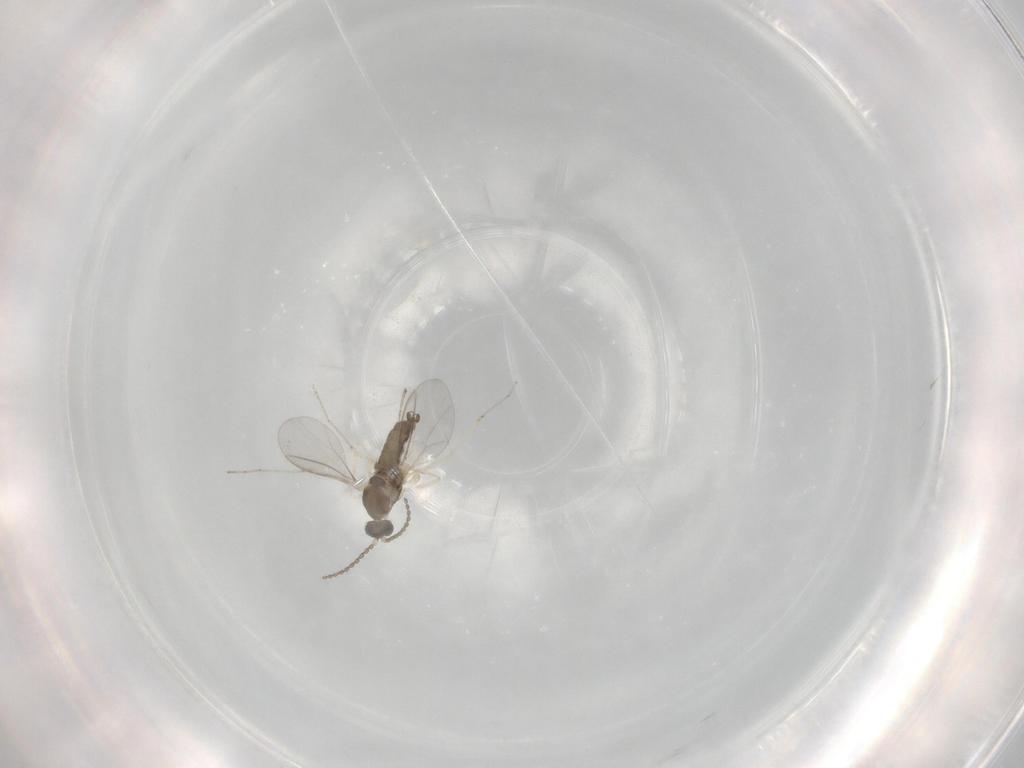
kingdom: Animalia
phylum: Arthropoda
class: Insecta
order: Diptera
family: Cecidomyiidae
